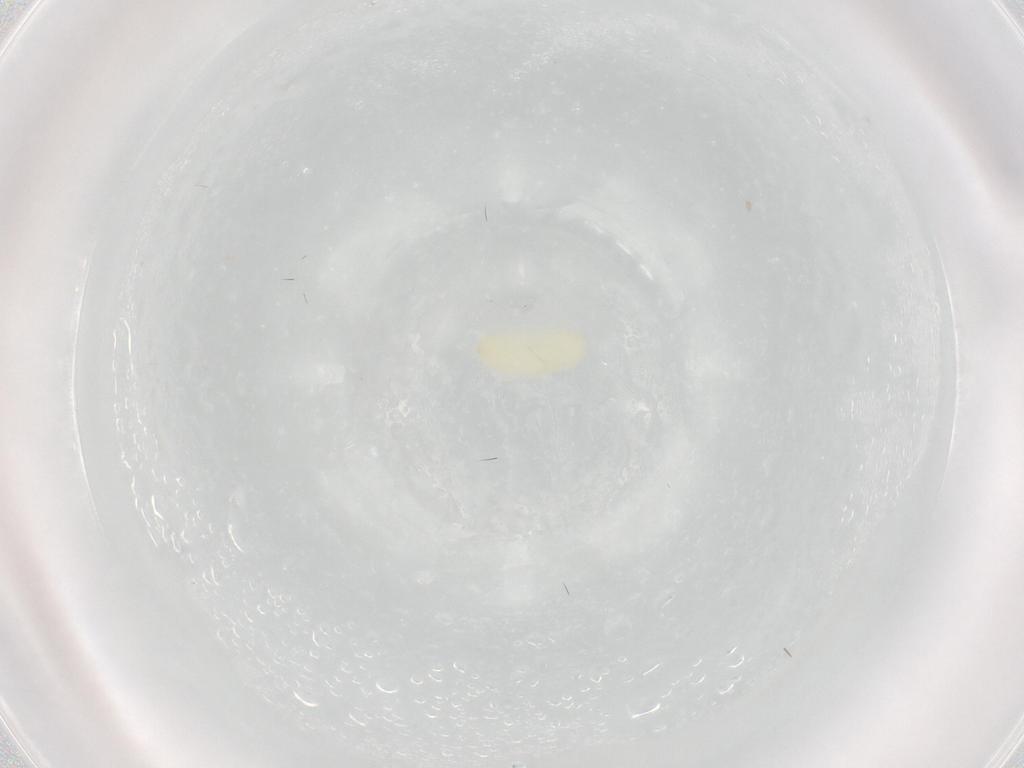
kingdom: Animalia
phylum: Arthropoda
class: Insecta
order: Neuroptera
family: Hemerobiidae
